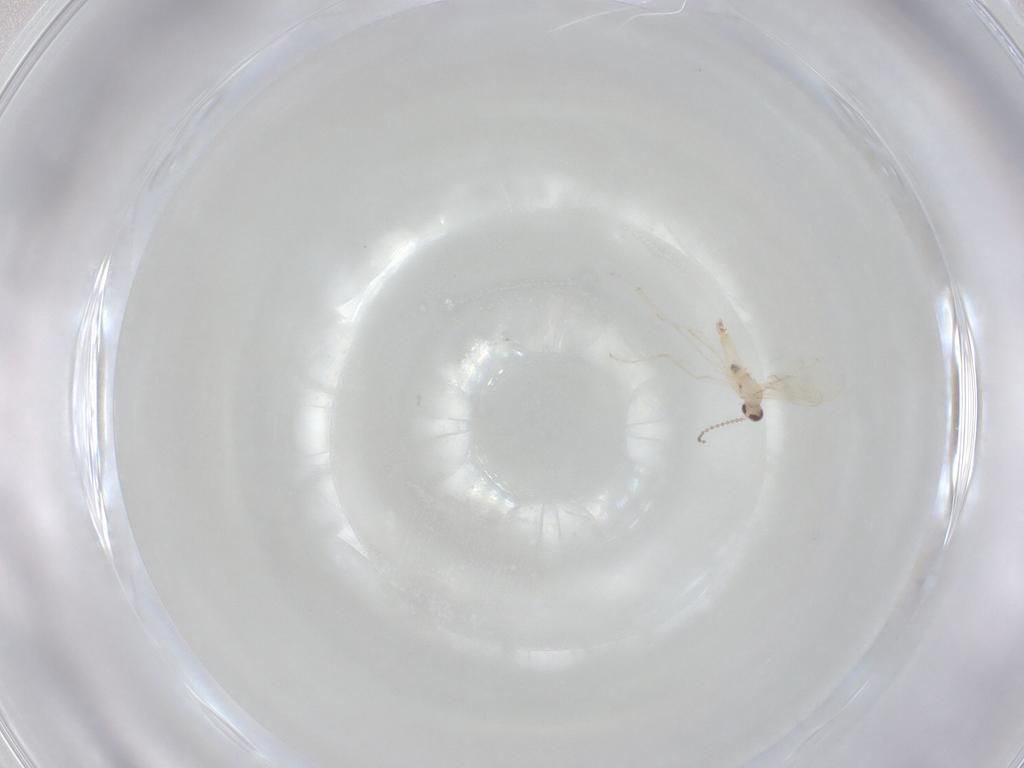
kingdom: Animalia
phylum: Arthropoda
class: Insecta
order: Diptera
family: Cecidomyiidae
